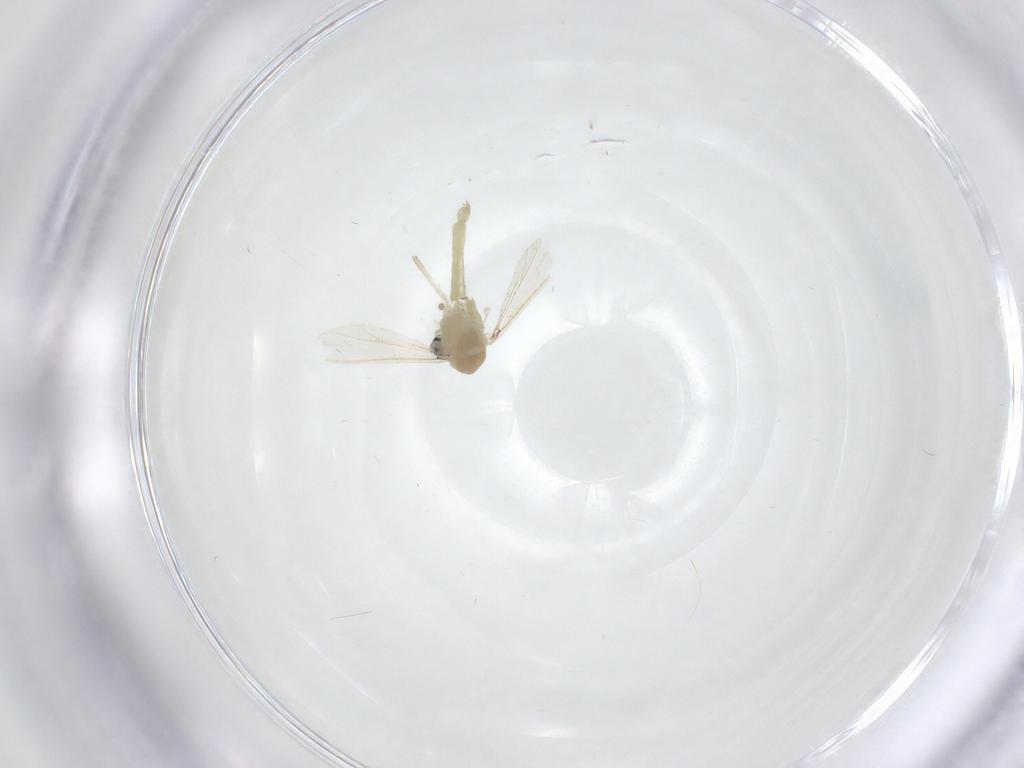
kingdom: Animalia
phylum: Arthropoda
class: Insecta
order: Diptera
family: Chironomidae
